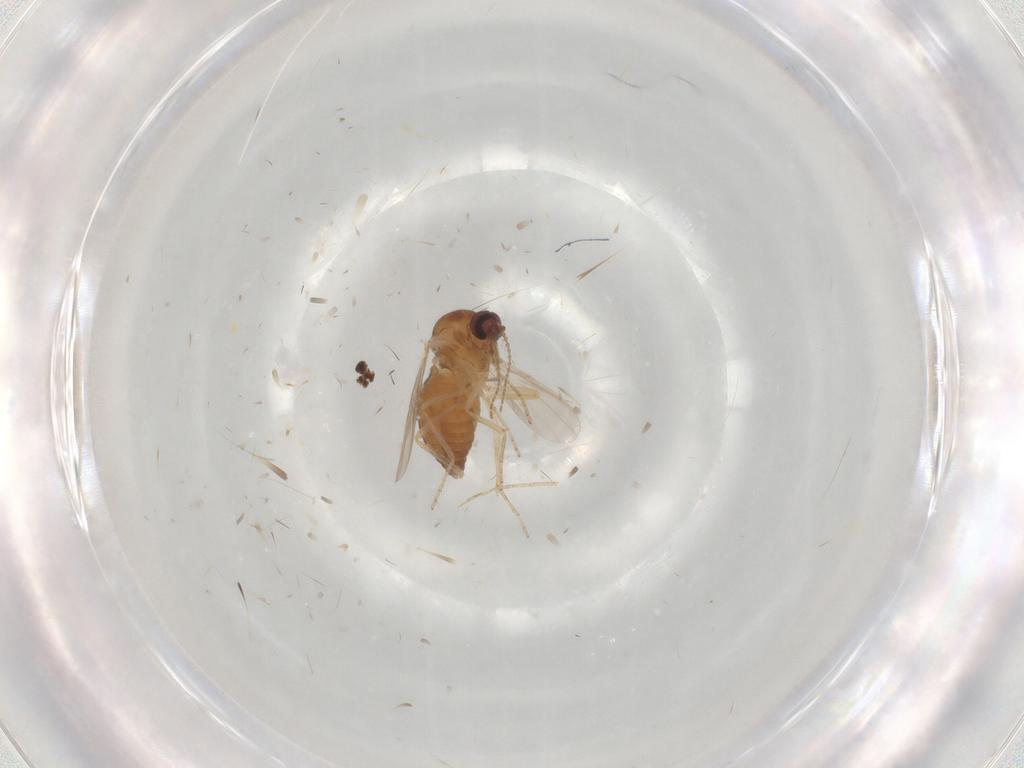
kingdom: Animalia
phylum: Arthropoda
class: Insecta
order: Diptera
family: Ceratopogonidae
